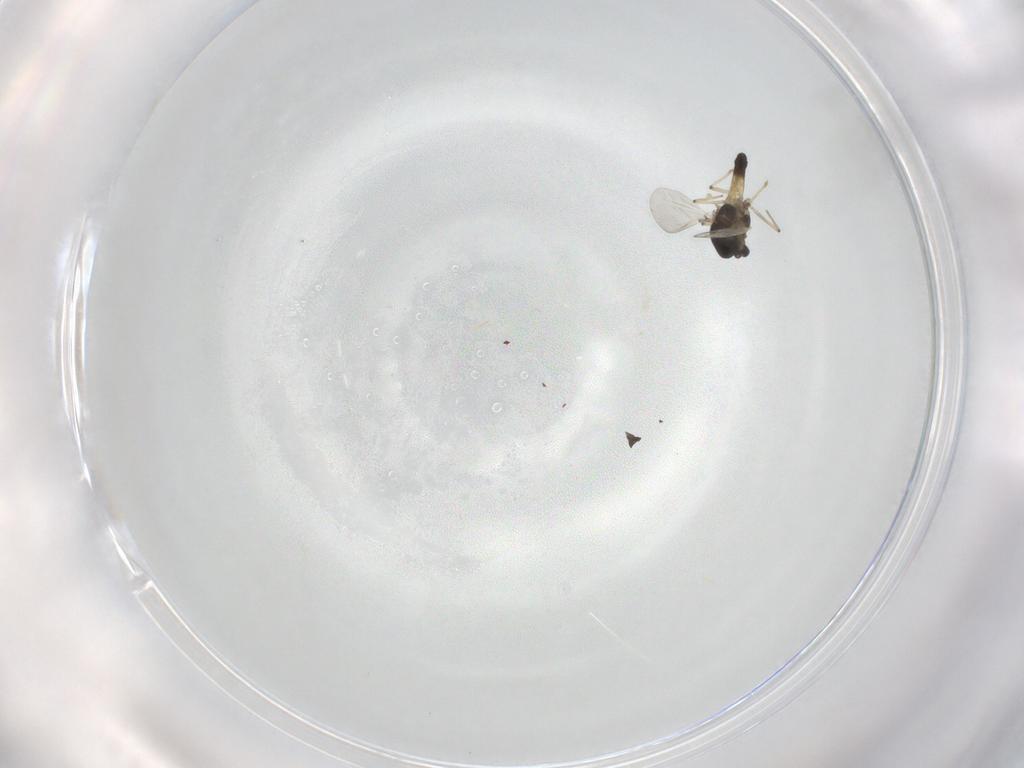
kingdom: Animalia
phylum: Arthropoda
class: Insecta
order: Diptera
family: Chironomidae
